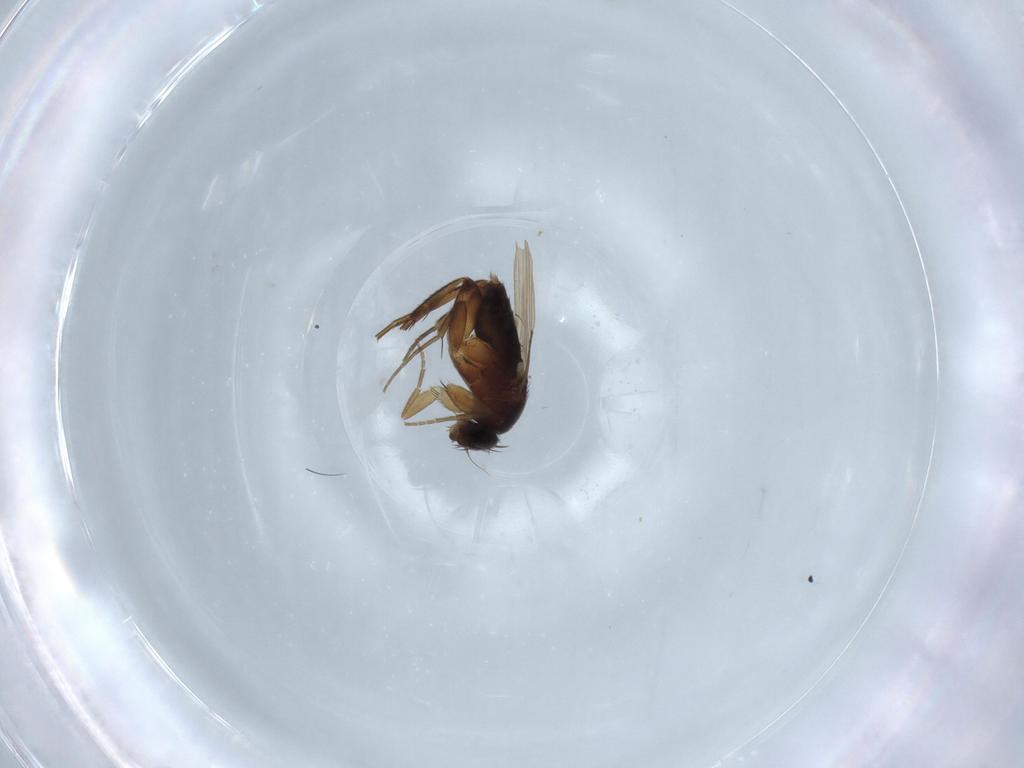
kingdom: Animalia
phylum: Arthropoda
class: Insecta
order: Diptera
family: Phoridae
